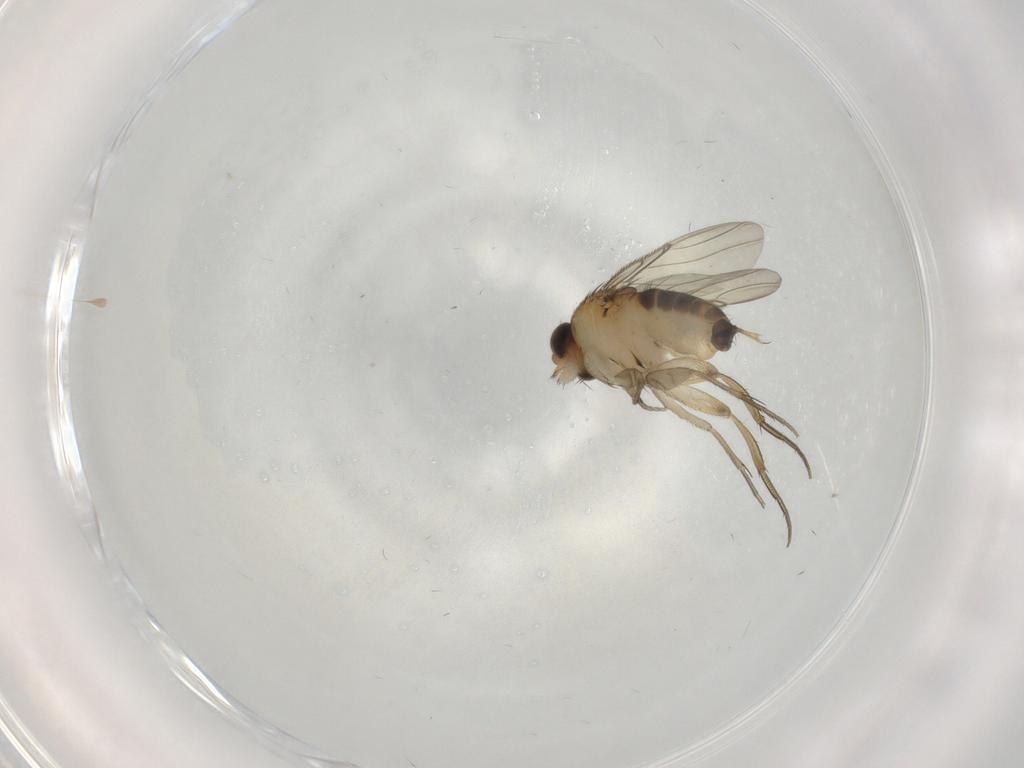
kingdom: Animalia
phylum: Arthropoda
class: Insecta
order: Diptera
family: Phoridae
